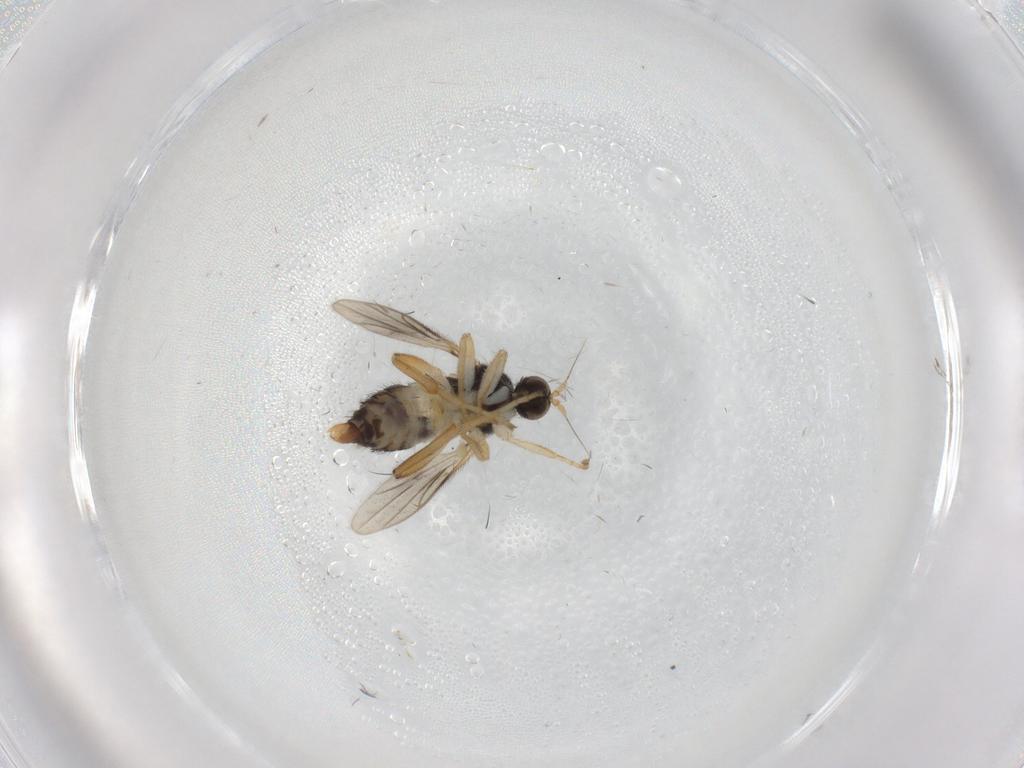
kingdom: Animalia
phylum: Arthropoda
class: Insecta
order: Diptera
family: Hybotidae
